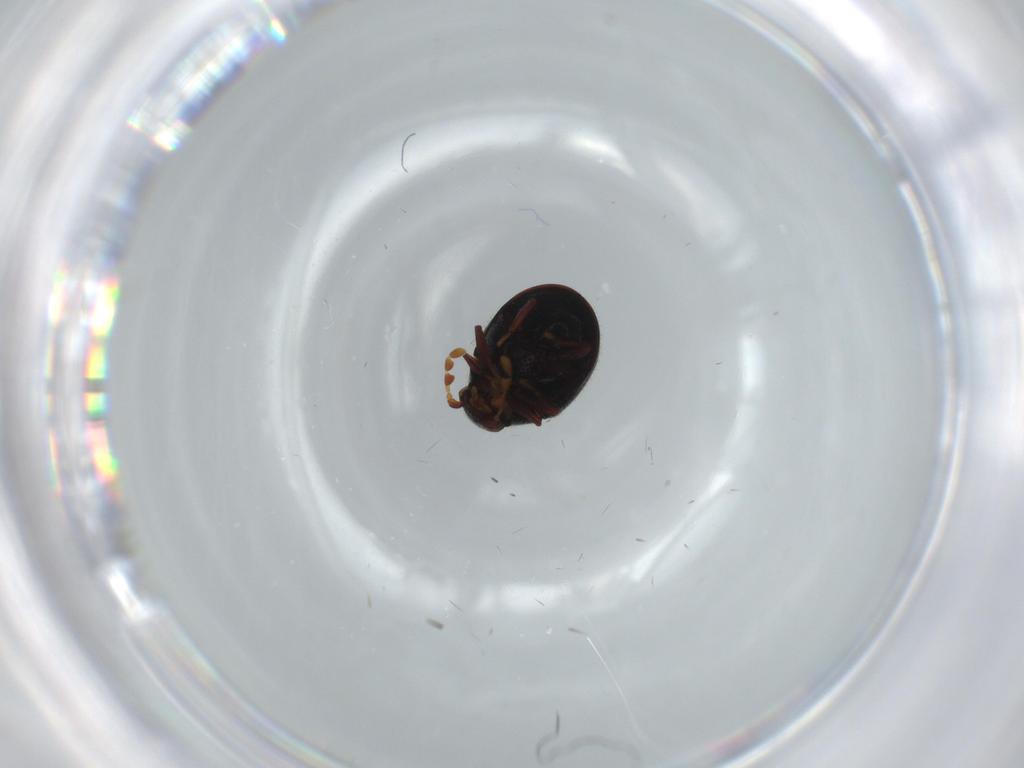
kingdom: Animalia
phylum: Arthropoda
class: Insecta
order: Coleoptera
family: Ptinidae
